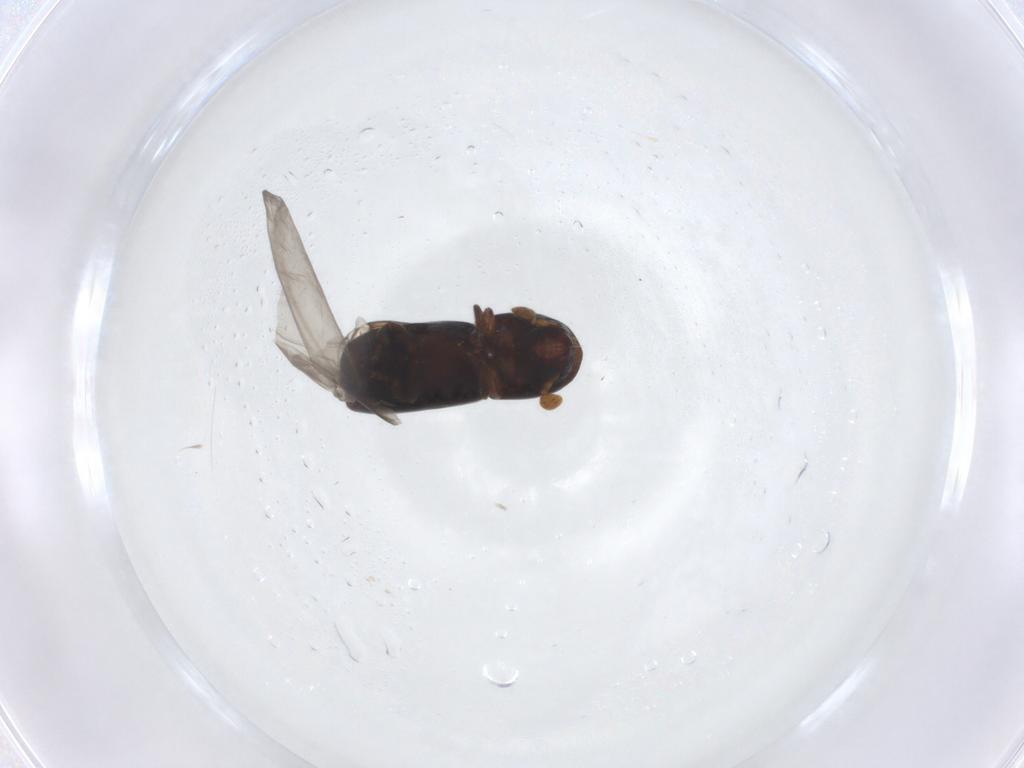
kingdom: Animalia
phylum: Arthropoda
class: Insecta
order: Coleoptera
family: Curculionidae
